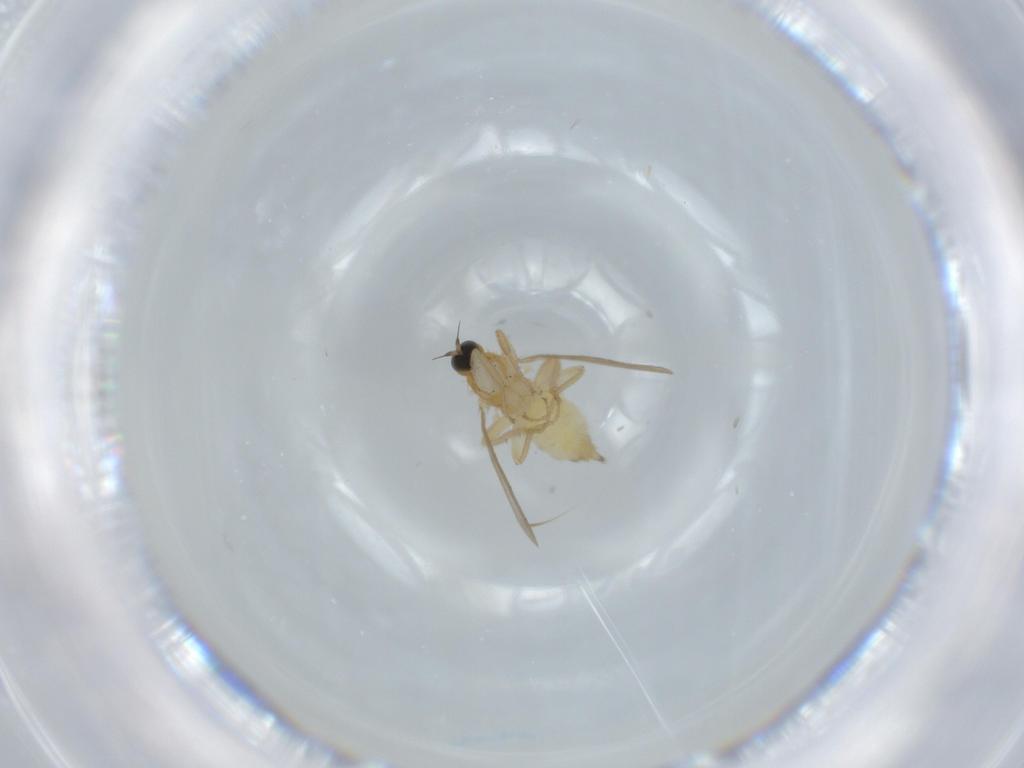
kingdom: Animalia
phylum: Arthropoda
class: Insecta
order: Diptera
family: Hybotidae
